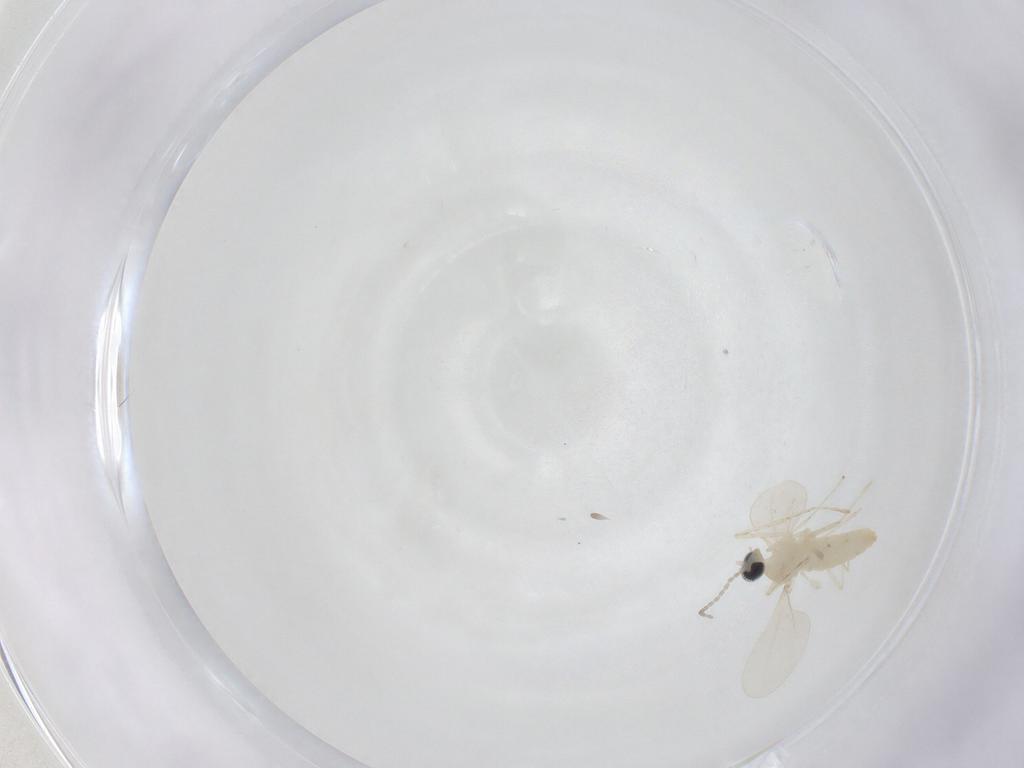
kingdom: Animalia
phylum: Arthropoda
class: Insecta
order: Diptera
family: Cecidomyiidae
